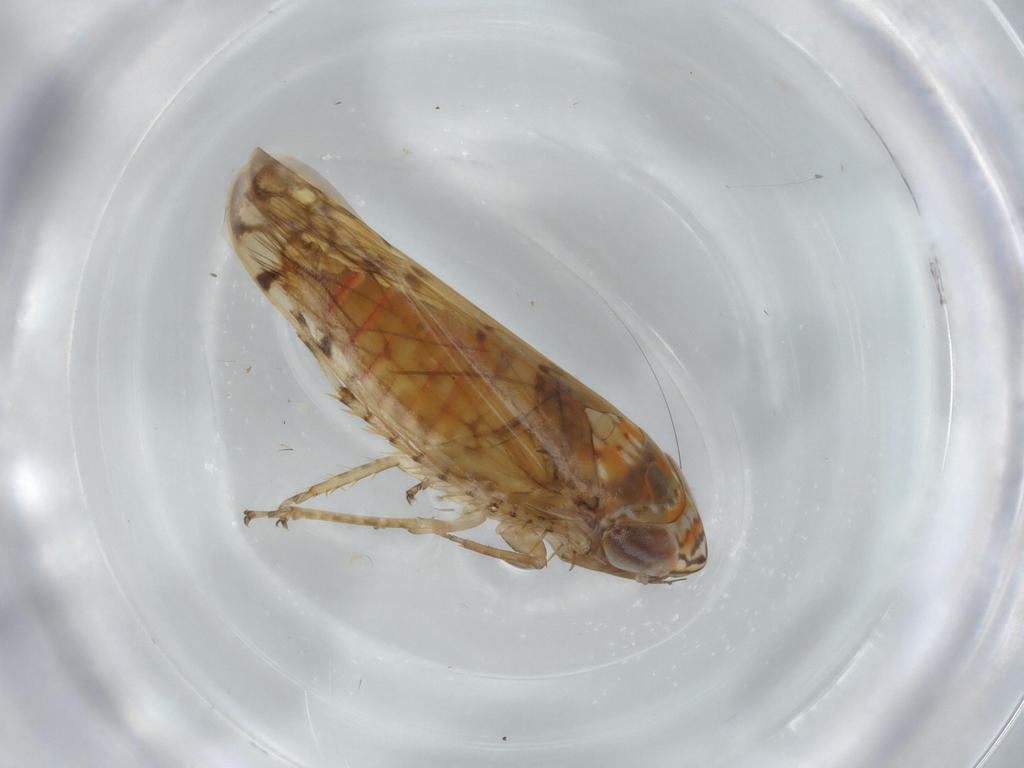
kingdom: Animalia
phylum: Arthropoda
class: Insecta
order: Hemiptera
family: Cicadellidae
